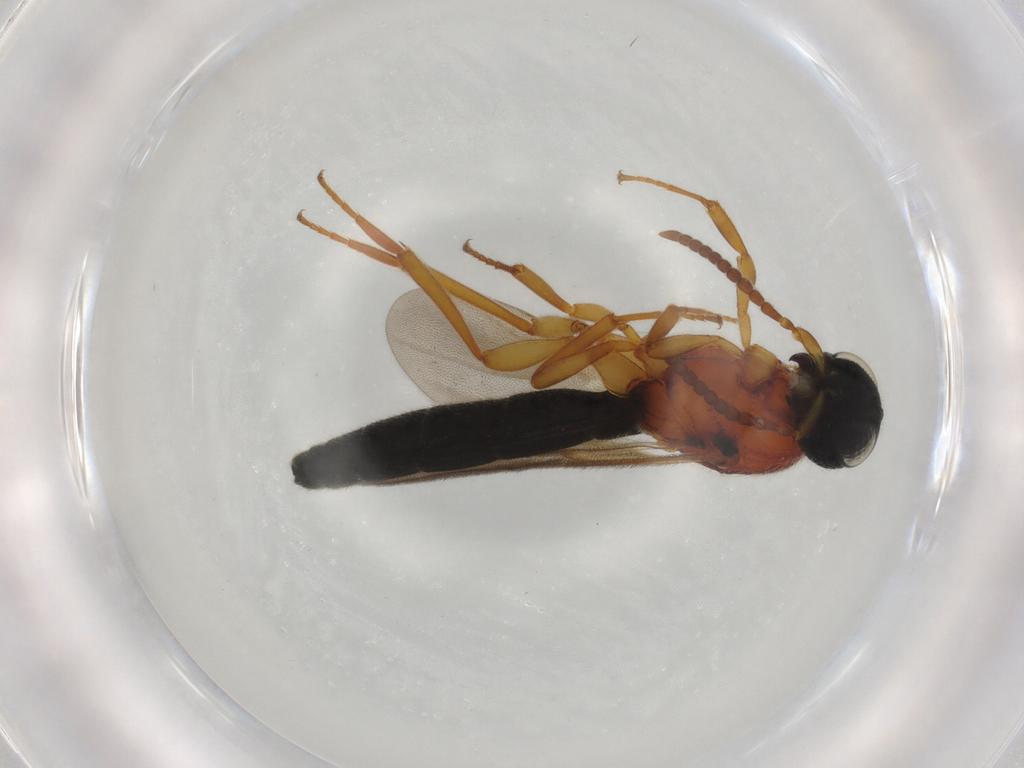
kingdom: Animalia
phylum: Arthropoda
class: Insecta
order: Hymenoptera
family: Scelionidae
